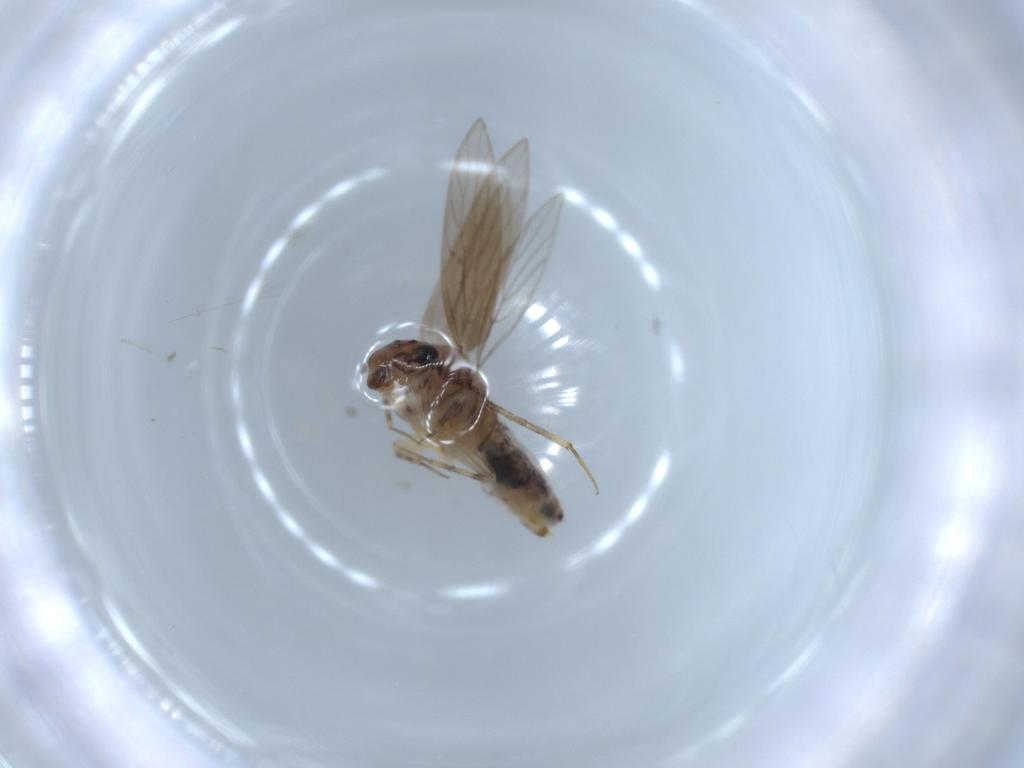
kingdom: Animalia
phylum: Arthropoda
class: Insecta
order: Psocodea
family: Lepidopsocidae
